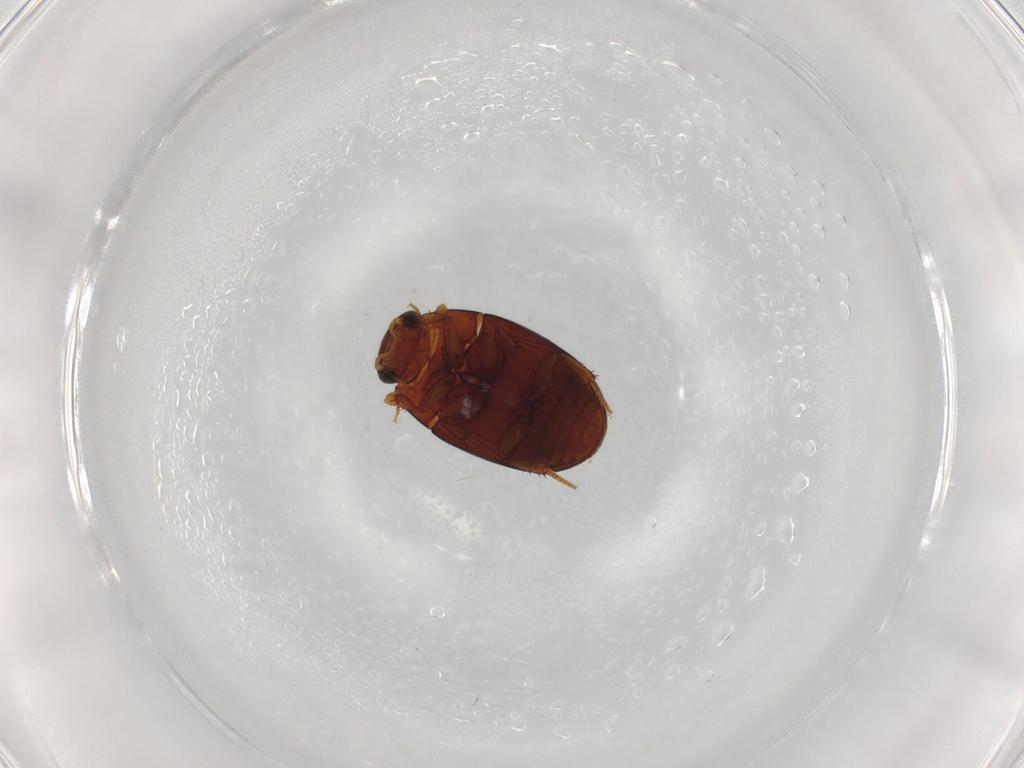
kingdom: Animalia
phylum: Arthropoda
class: Insecta
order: Coleoptera
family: Hydrophilidae
